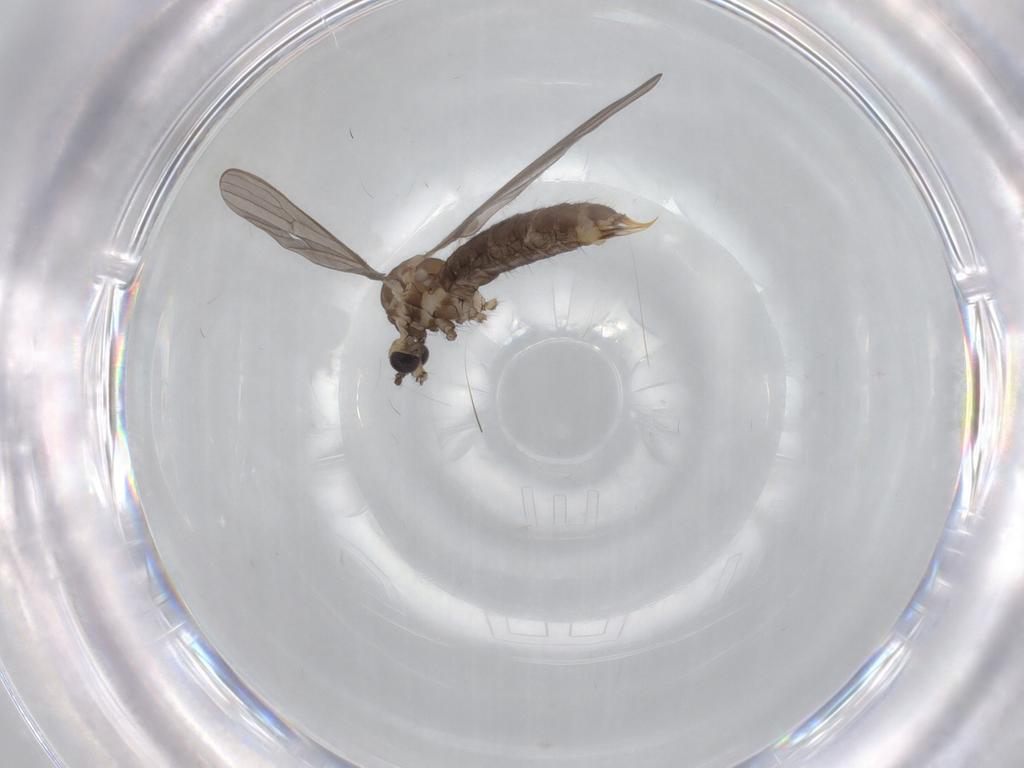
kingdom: Animalia
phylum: Arthropoda
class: Insecta
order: Diptera
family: Limoniidae
